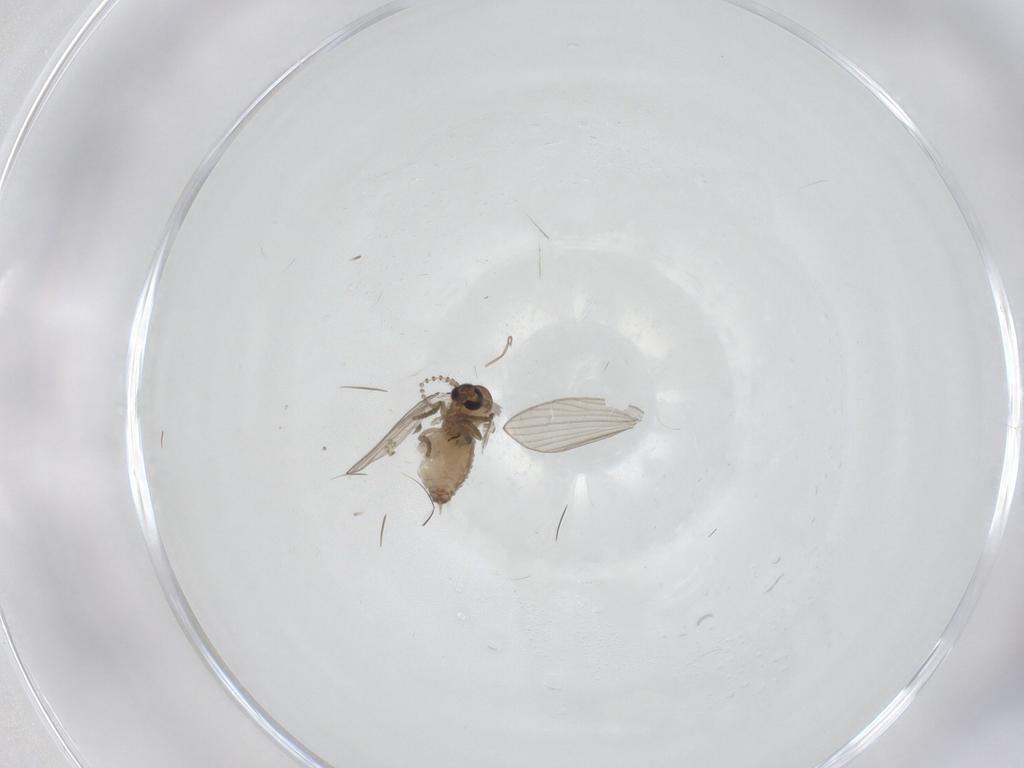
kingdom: Animalia
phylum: Arthropoda
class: Insecta
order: Diptera
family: Psychodidae
